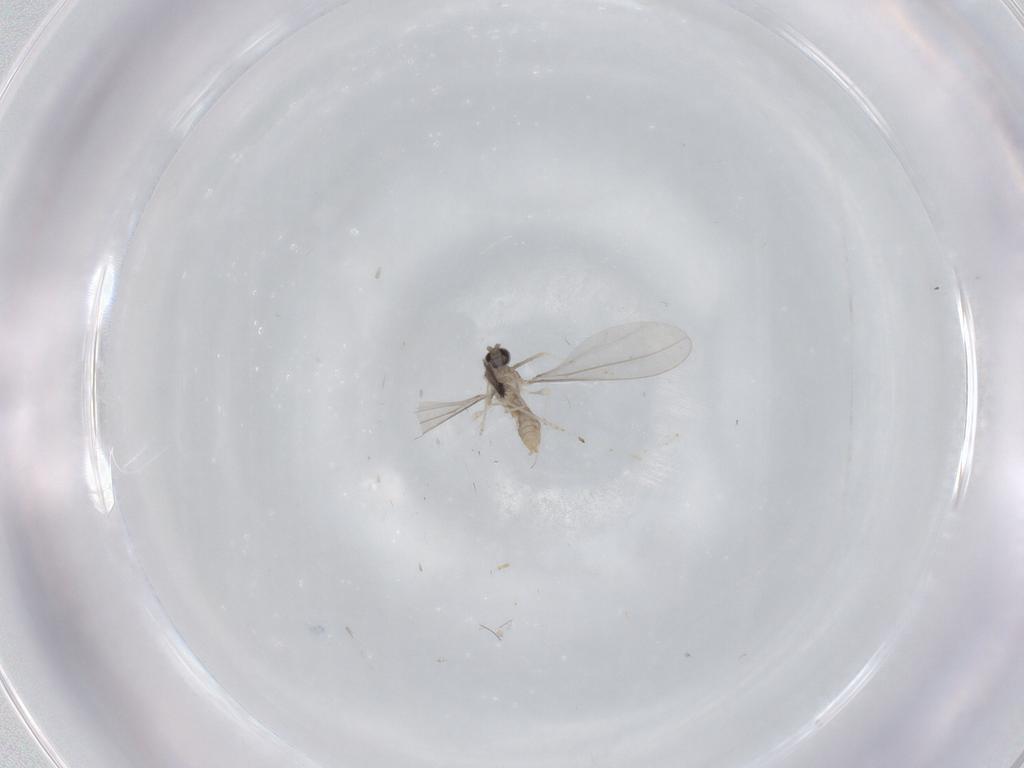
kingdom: Animalia
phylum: Arthropoda
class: Insecta
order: Diptera
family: Cecidomyiidae
